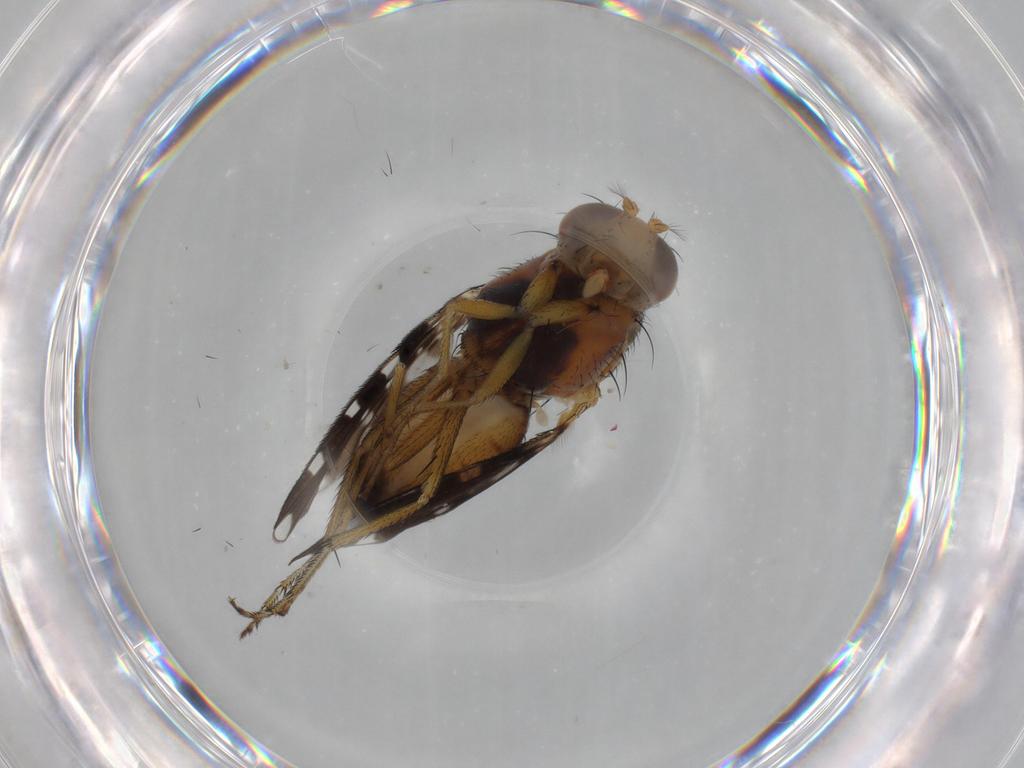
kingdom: Animalia
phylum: Arthropoda
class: Insecta
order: Diptera
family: Ephydridae
